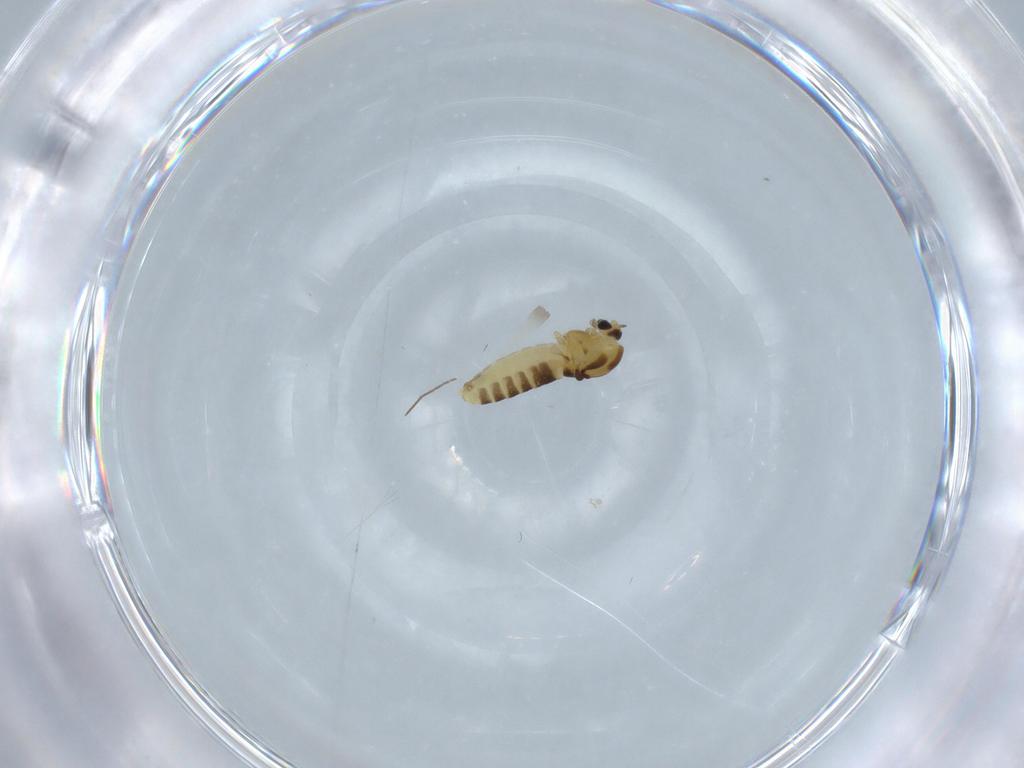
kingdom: Animalia
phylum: Arthropoda
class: Insecta
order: Diptera
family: Chironomidae
